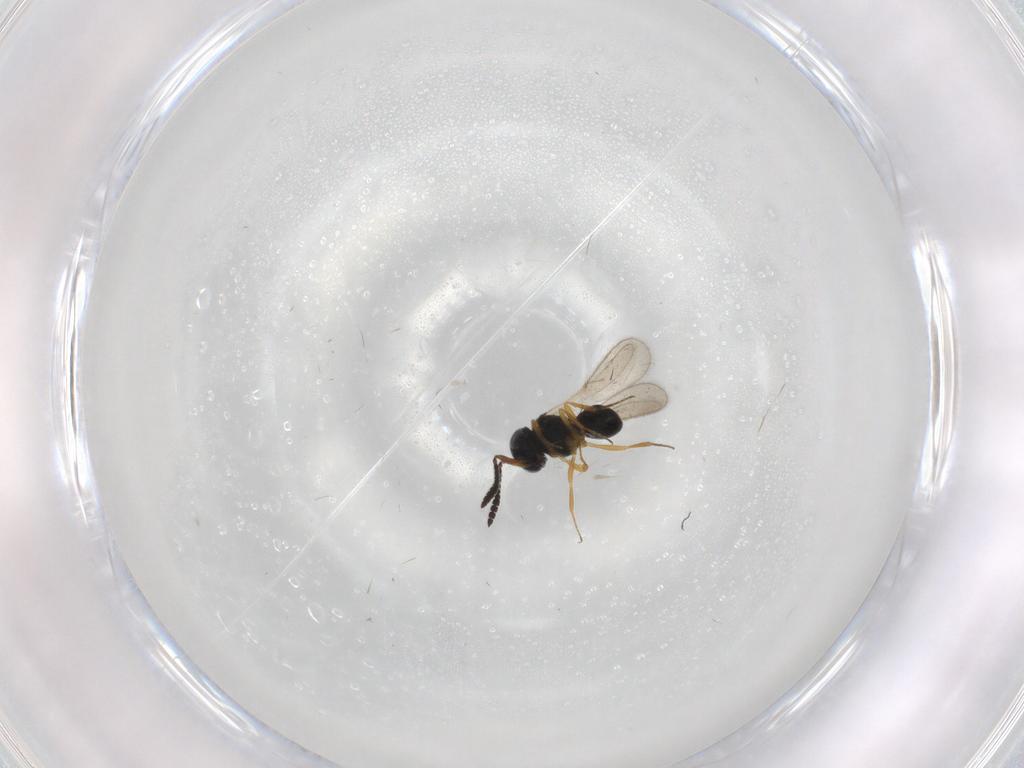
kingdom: Animalia
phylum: Arthropoda
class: Insecta
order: Hymenoptera
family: Scelionidae
